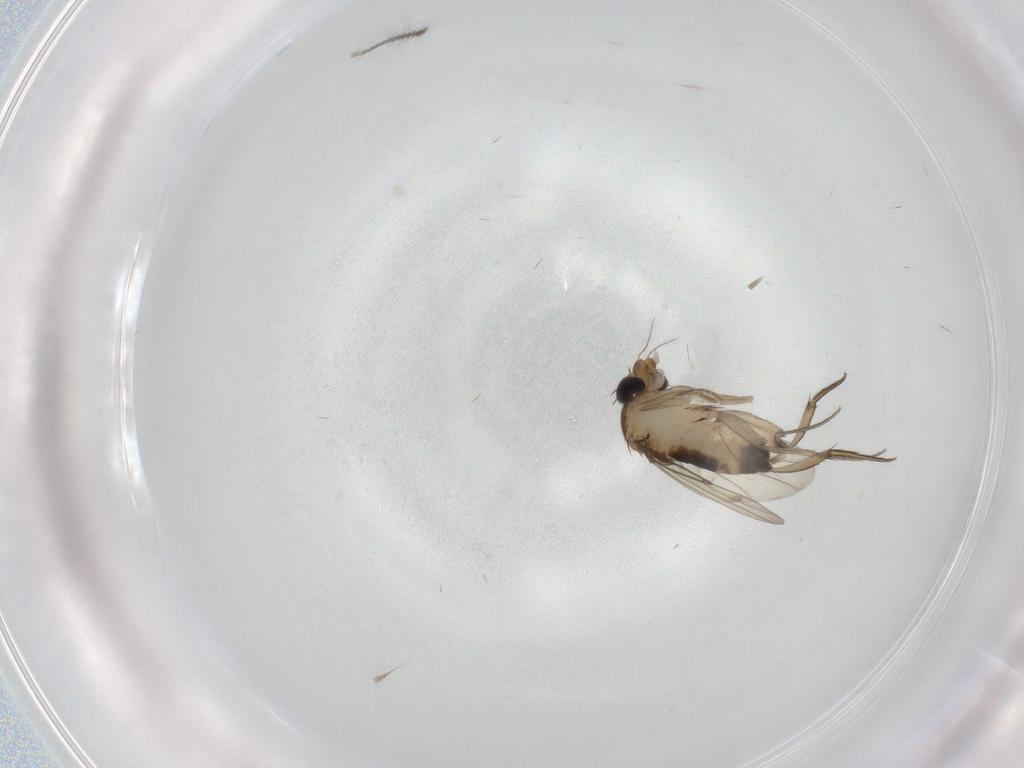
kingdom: Animalia
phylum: Arthropoda
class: Insecta
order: Diptera
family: Phoridae
